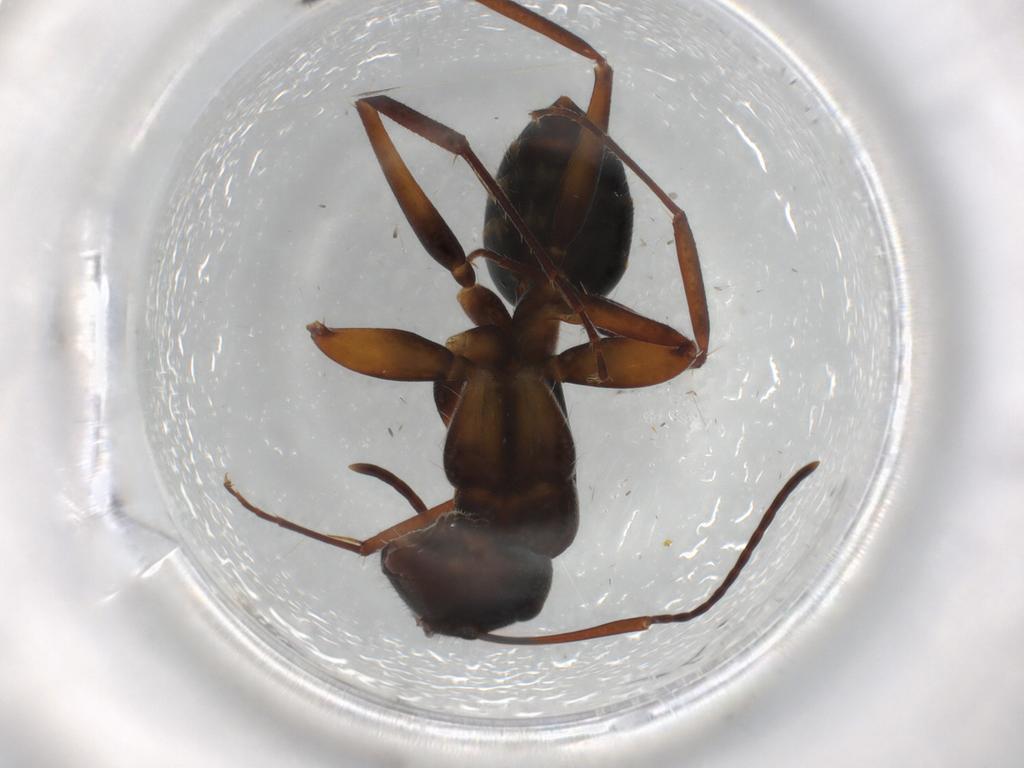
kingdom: Animalia
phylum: Arthropoda
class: Insecta
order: Hymenoptera
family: Formicidae
